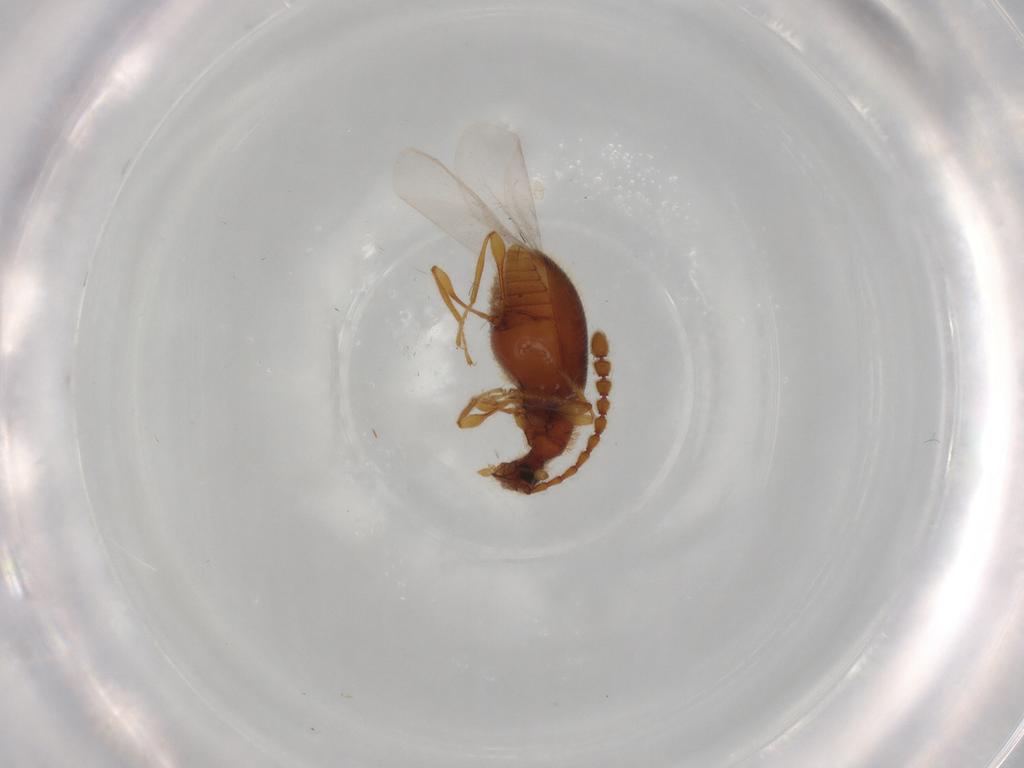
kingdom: Animalia
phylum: Arthropoda
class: Insecta
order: Coleoptera
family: Staphylinidae
